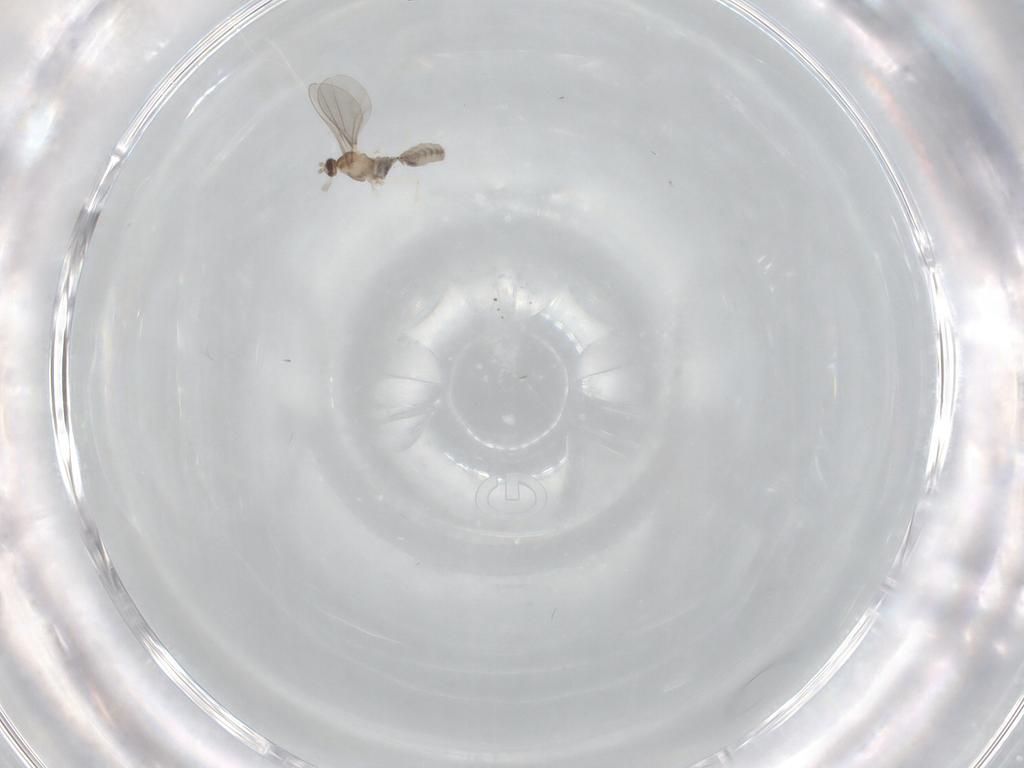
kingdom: Animalia
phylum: Arthropoda
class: Insecta
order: Diptera
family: Cecidomyiidae
